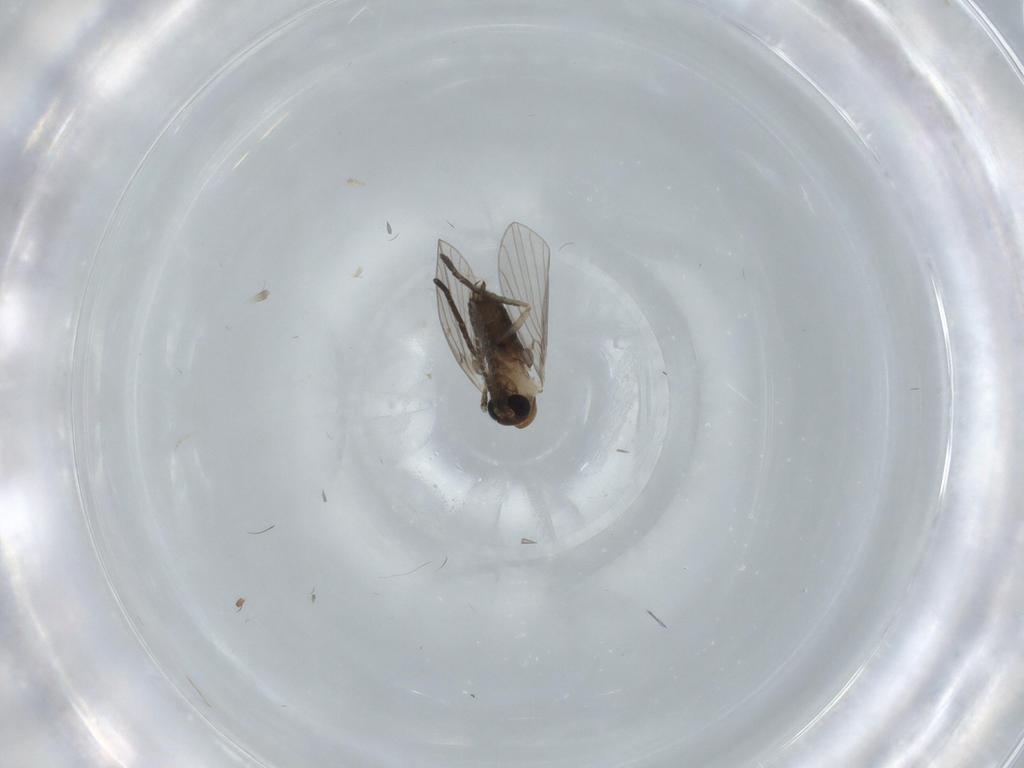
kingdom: Animalia
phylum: Arthropoda
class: Insecta
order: Diptera
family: Psychodidae
